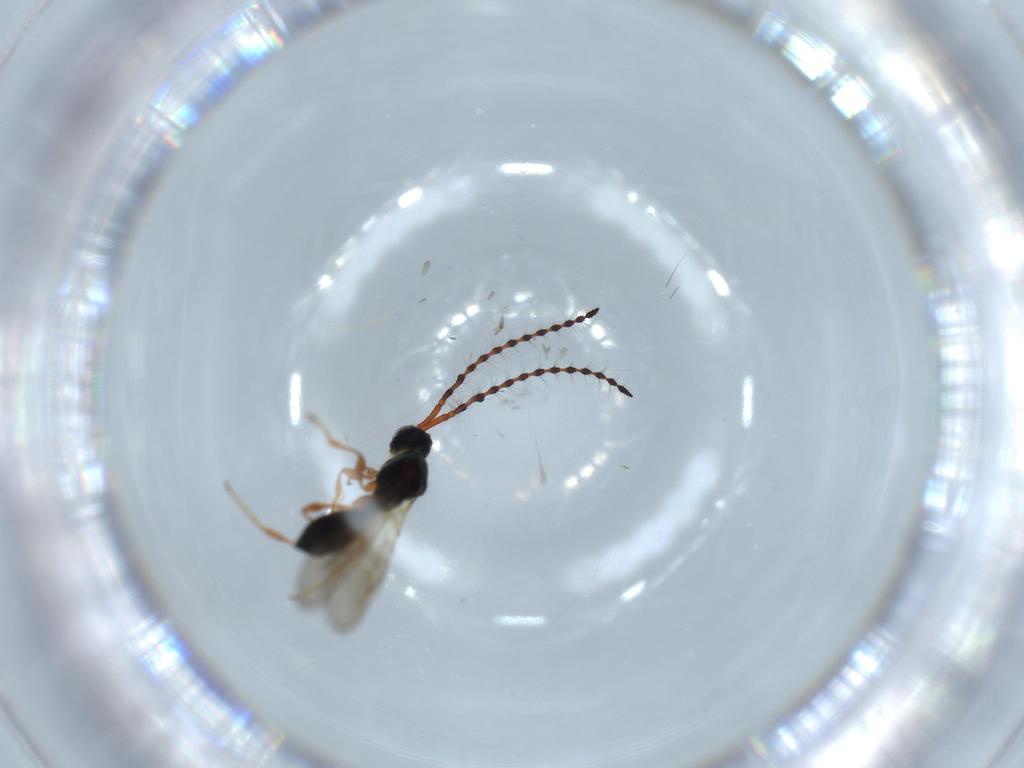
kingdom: Animalia
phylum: Arthropoda
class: Insecta
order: Hymenoptera
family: Diapriidae
